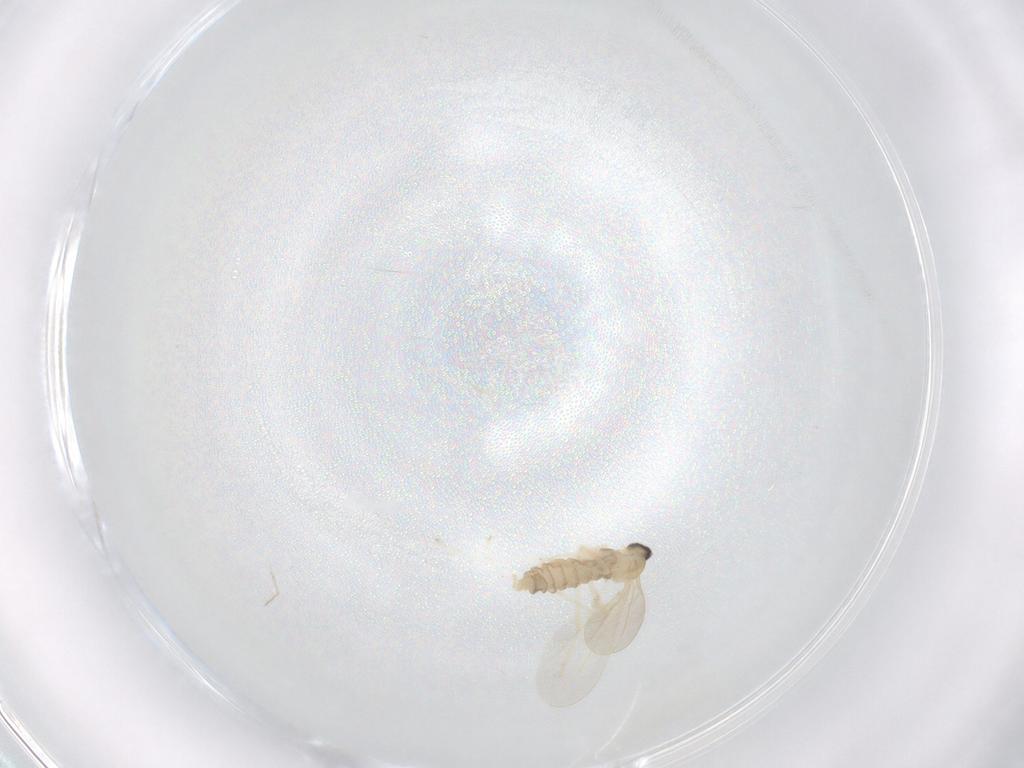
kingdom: Animalia
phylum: Arthropoda
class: Insecta
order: Diptera
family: Cecidomyiidae
